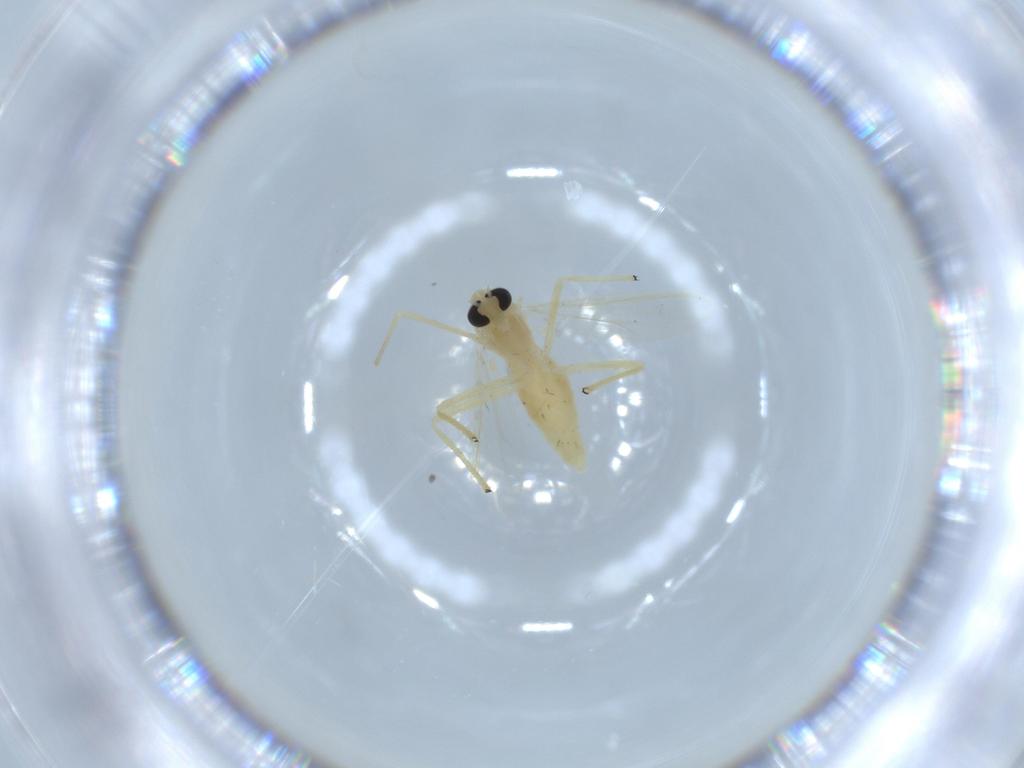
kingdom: Animalia
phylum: Arthropoda
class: Insecta
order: Diptera
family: Chironomidae
